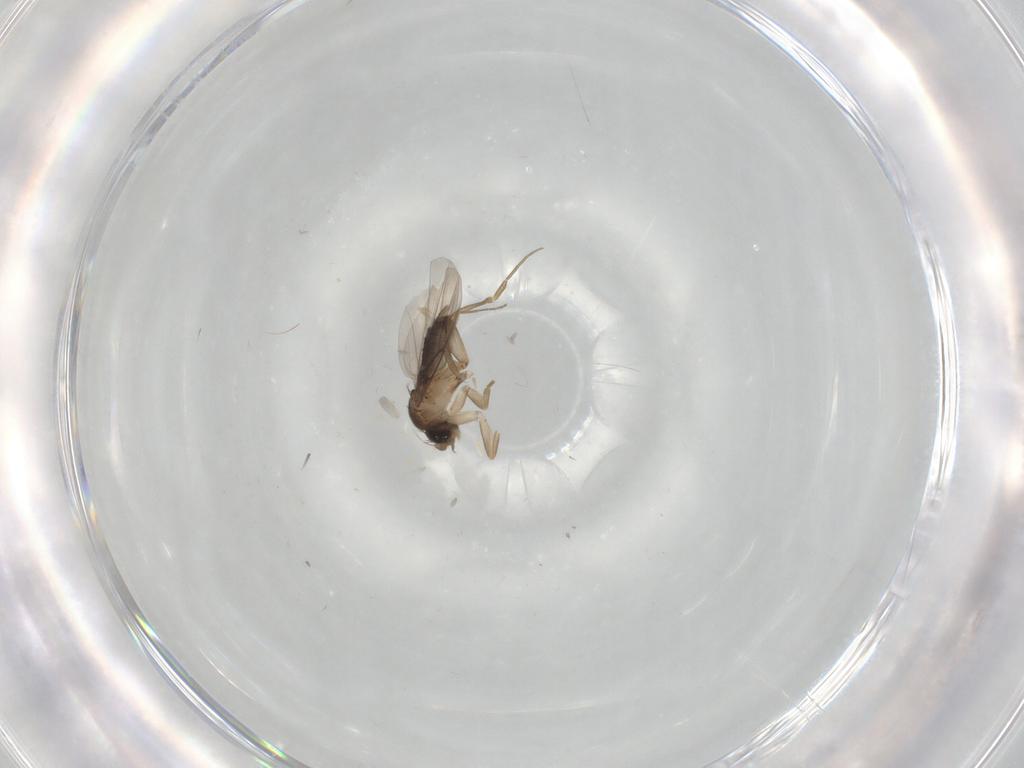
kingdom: Animalia
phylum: Arthropoda
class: Insecta
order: Diptera
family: Phoridae
